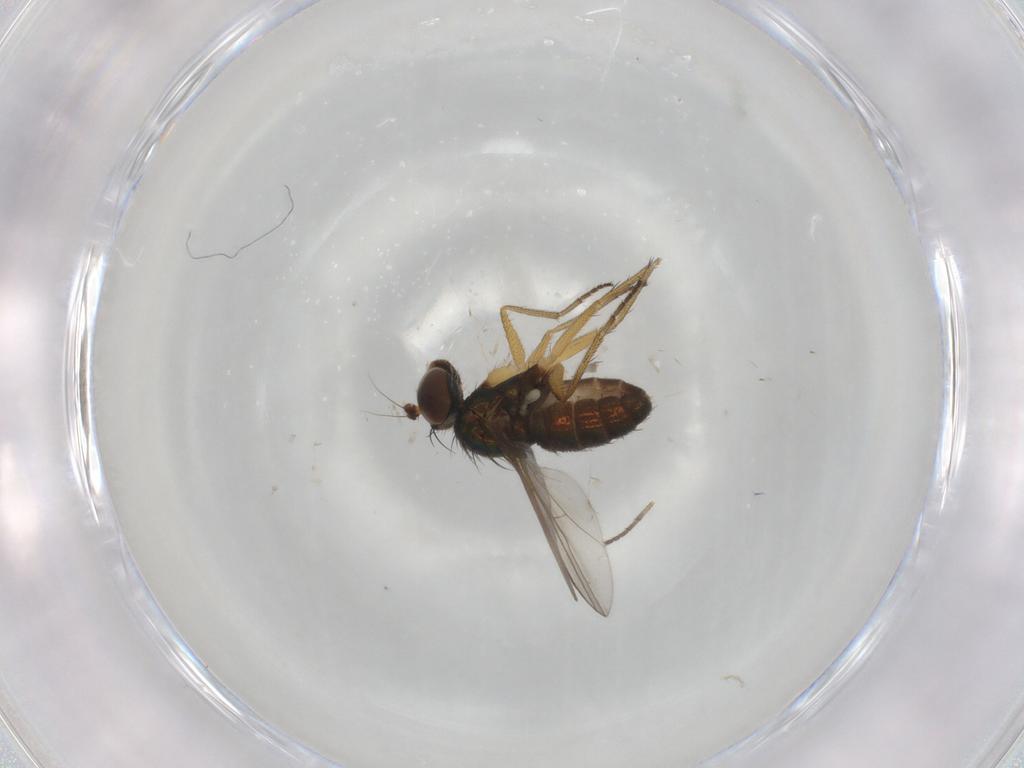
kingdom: Animalia
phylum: Arthropoda
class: Insecta
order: Diptera
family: Dolichopodidae
